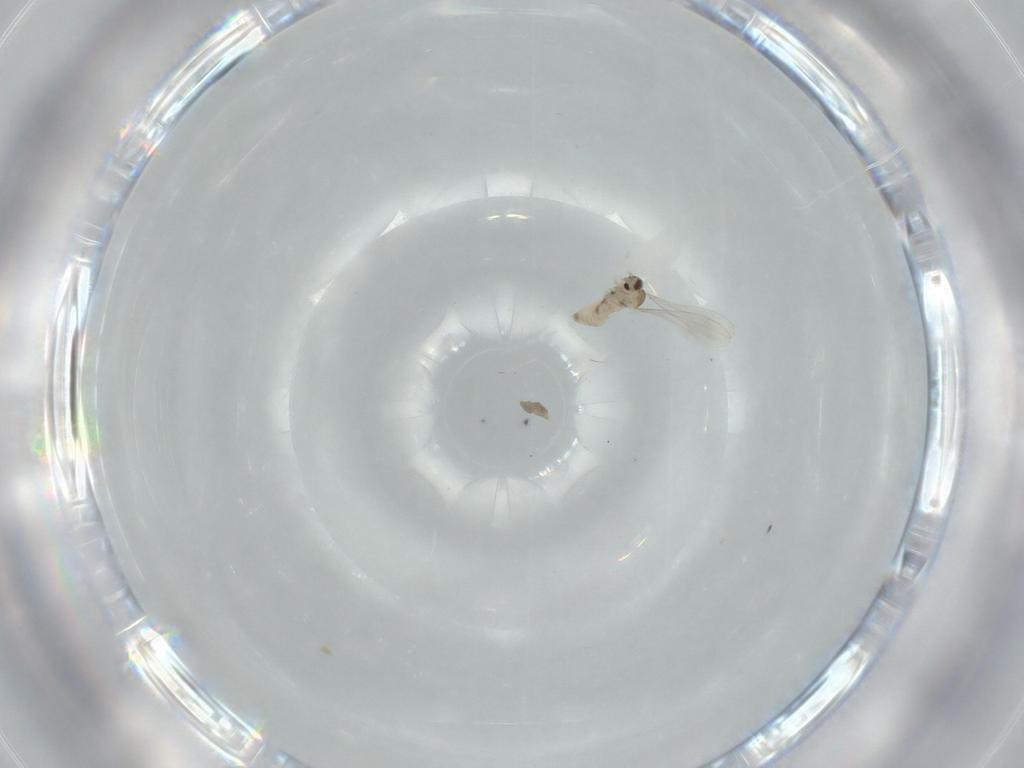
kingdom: Animalia
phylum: Arthropoda
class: Insecta
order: Diptera
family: Cecidomyiidae
